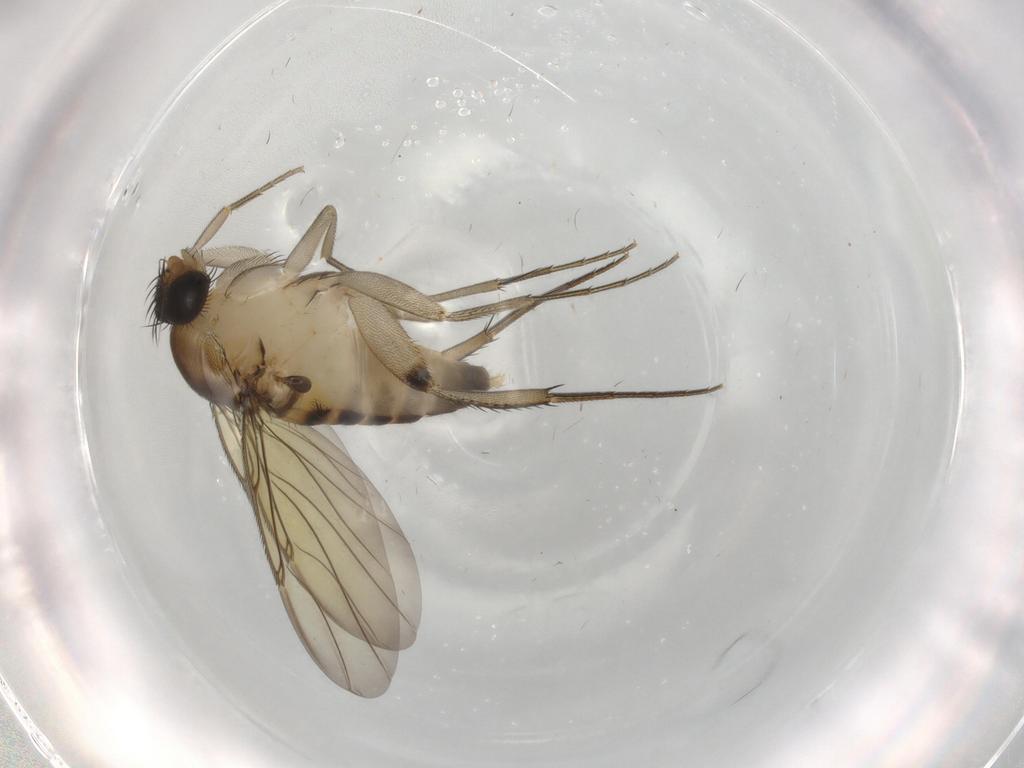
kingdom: Animalia
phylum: Arthropoda
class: Insecta
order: Diptera
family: Phoridae
